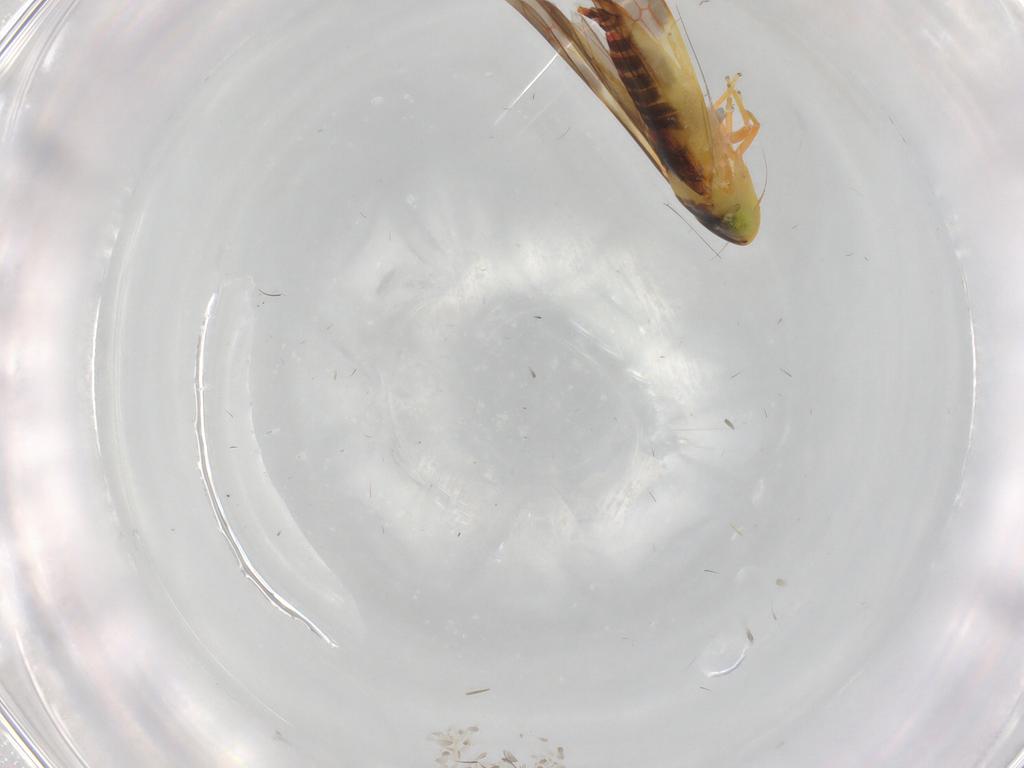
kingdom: Animalia
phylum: Arthropoda
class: Insecta
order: Hemiptera
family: Cicadellidae
